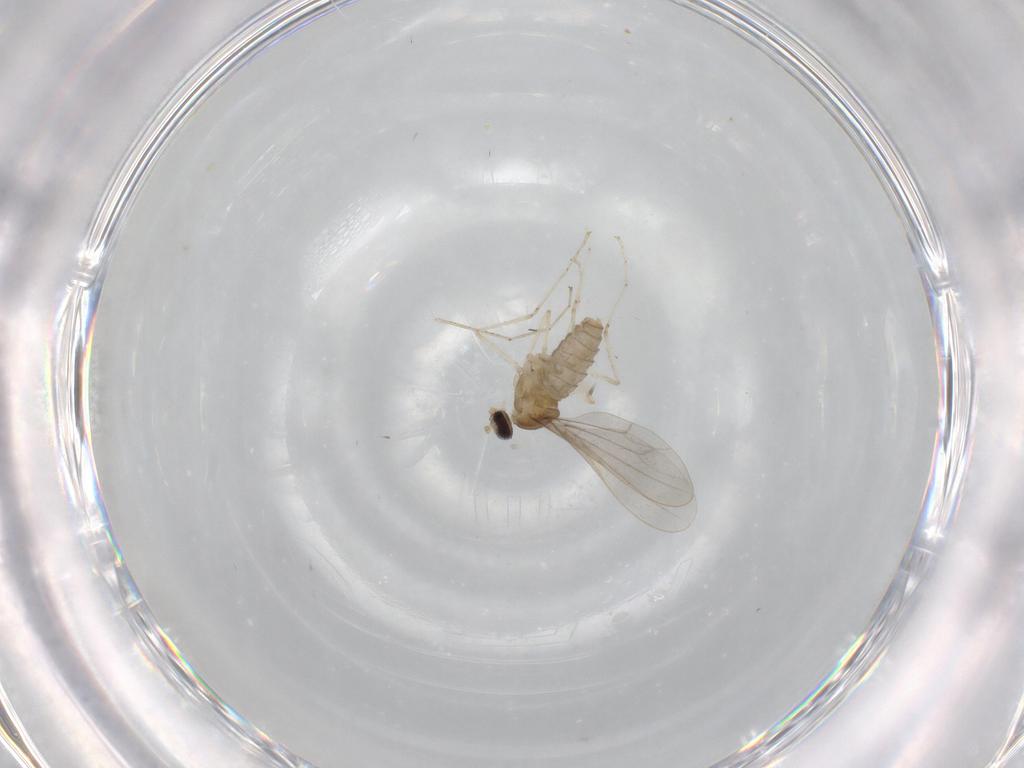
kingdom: Animalia
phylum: Arthropoda
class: Insecta
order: Diptera
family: Cecidomyiidae
